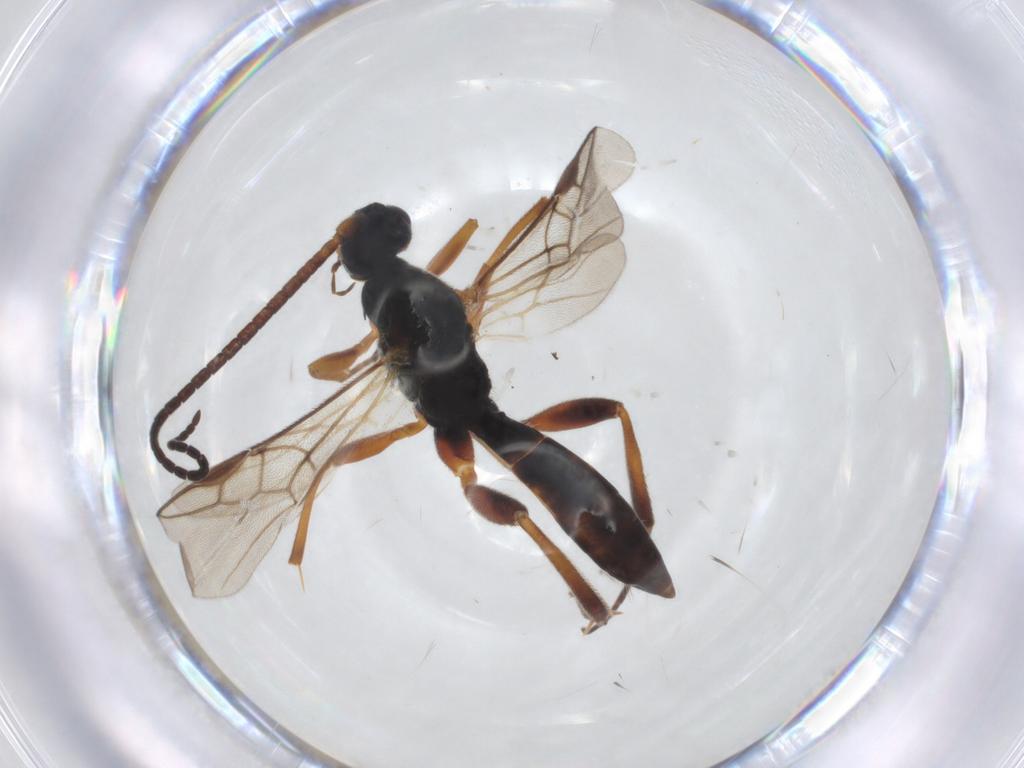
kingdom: Animalia
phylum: Arthropoda
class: Insecta
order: Hymenoptera
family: Braconidae
